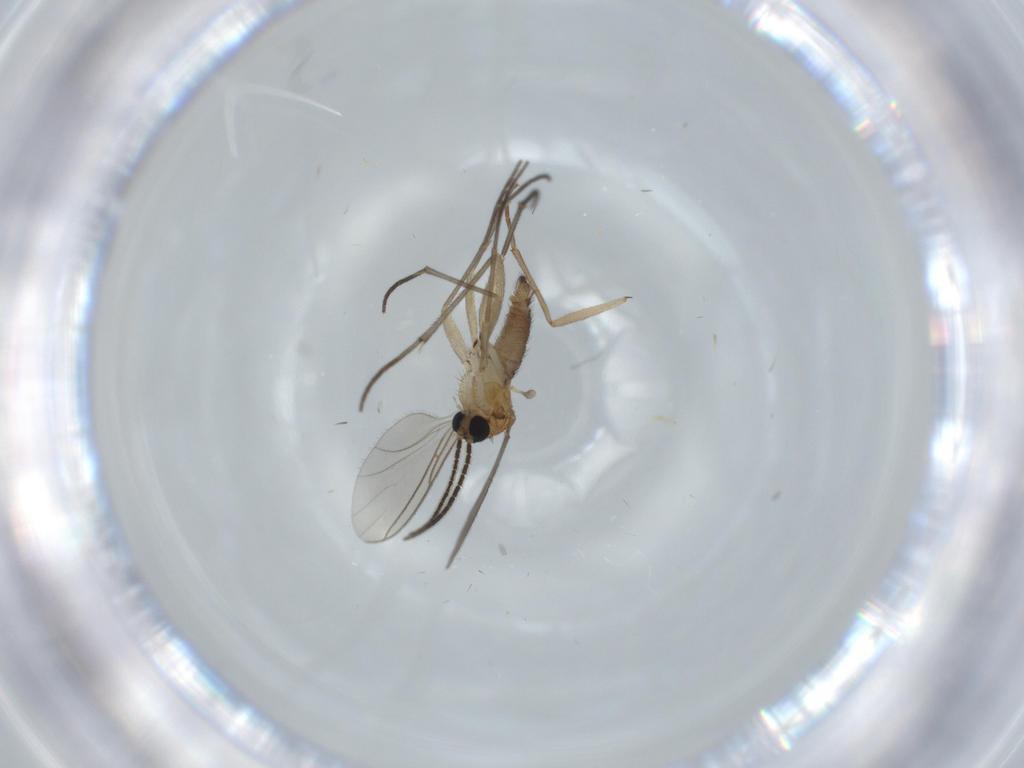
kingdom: Animalia
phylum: Arthropoda
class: Insecta
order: Diptera
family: Sciaridae
